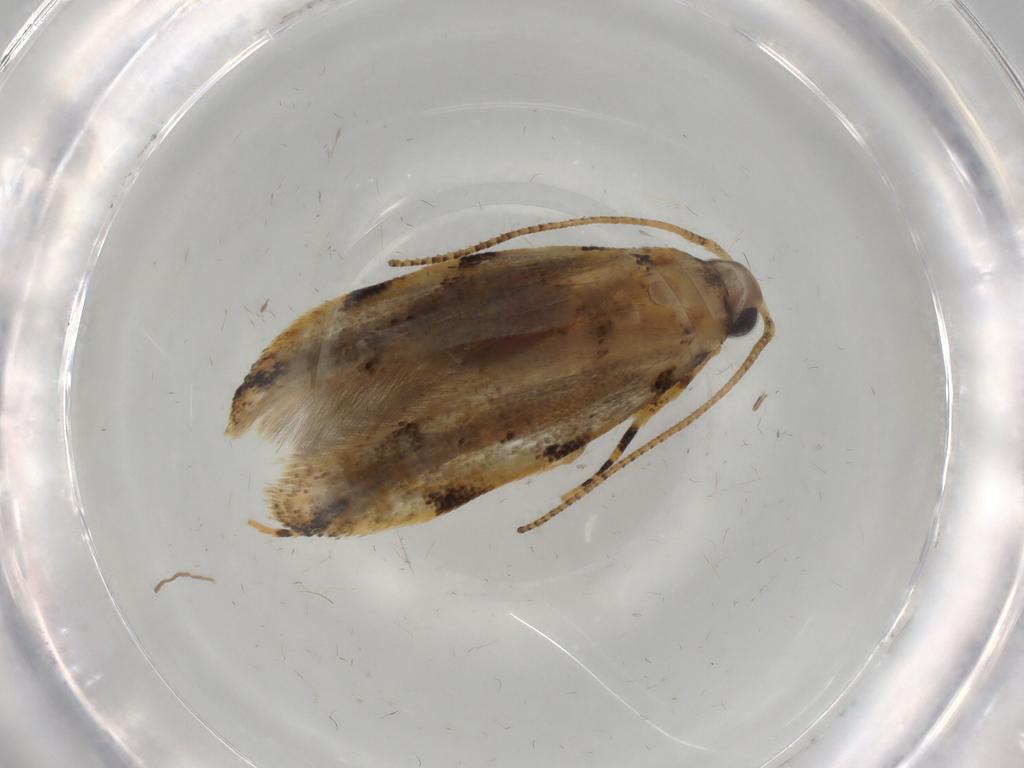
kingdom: Animalia
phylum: Arthropoda
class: Insecta
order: Lepidoptera
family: Gelechiidae
